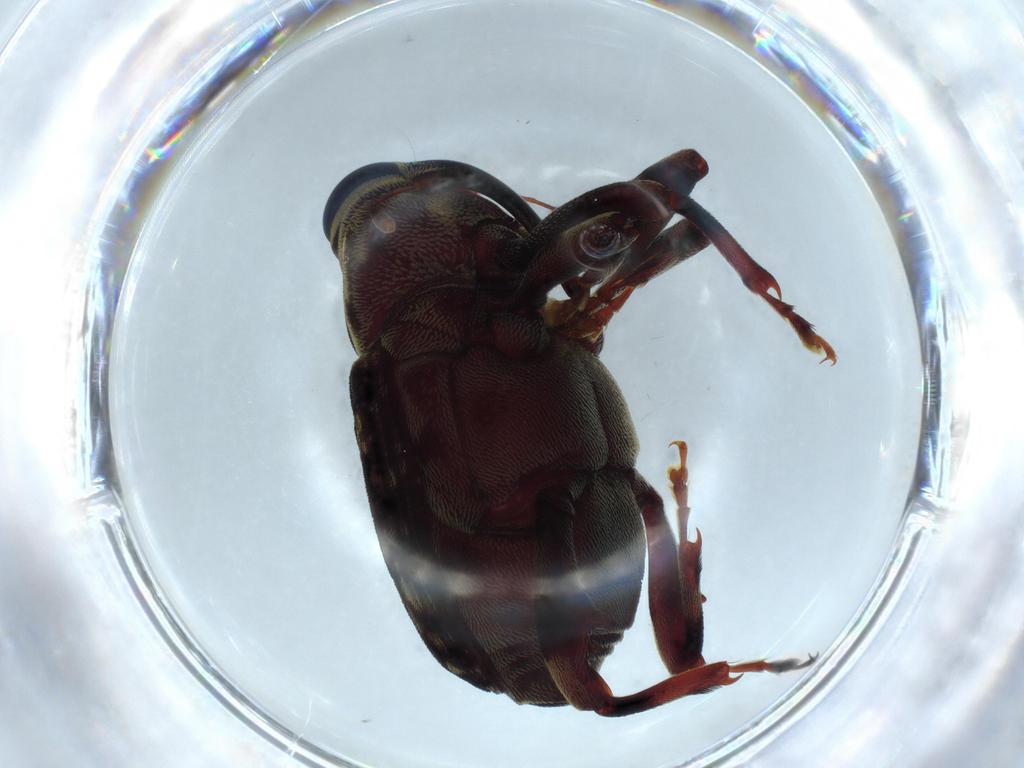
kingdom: Animalia
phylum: Arthropoda
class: Insecta
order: Coleoptera
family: Curculionidae
